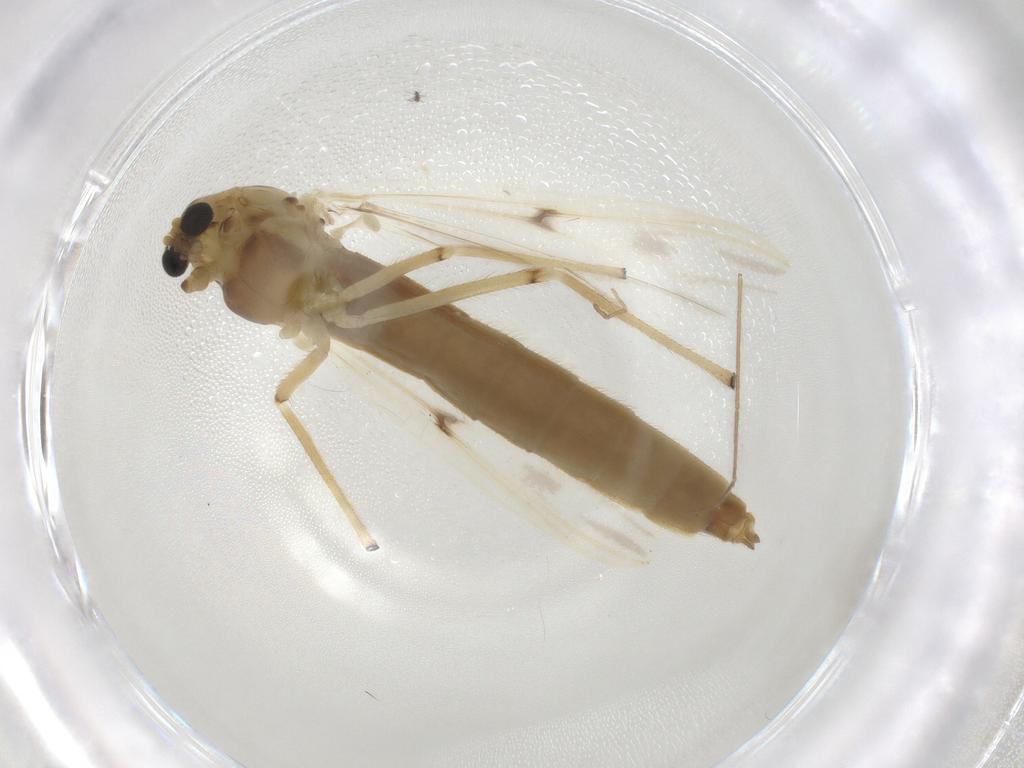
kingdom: Animalia
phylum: Arthropoda
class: Insecta
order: Diptera
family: Chironomidae
